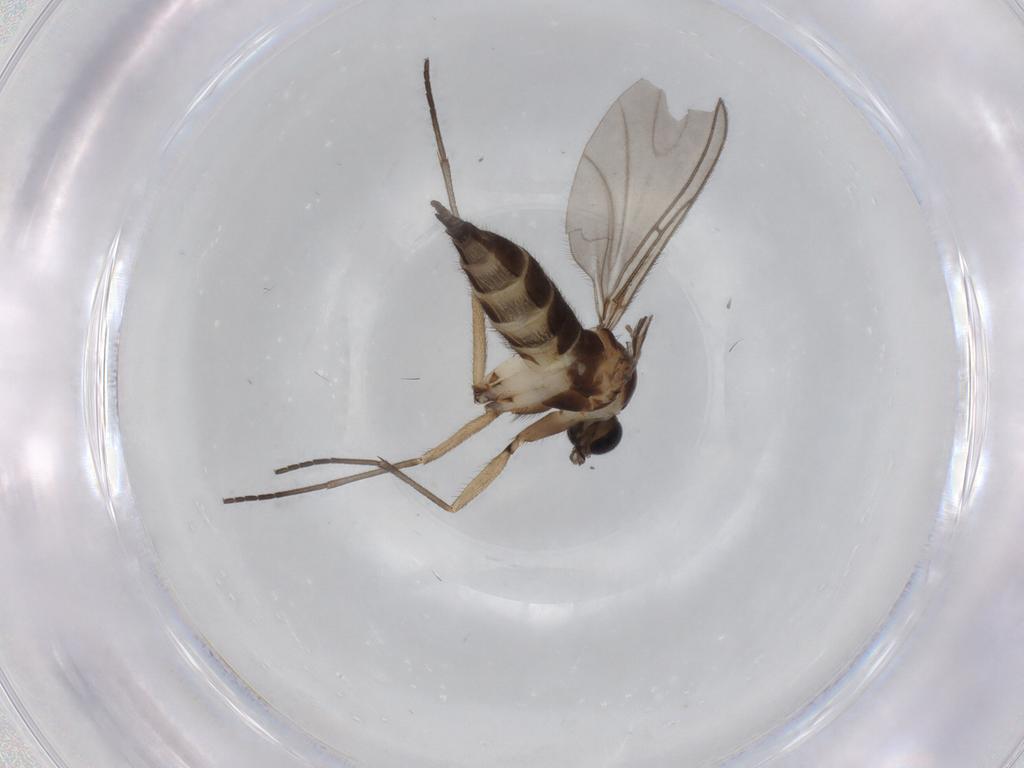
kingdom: Animalia
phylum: Arthropoda
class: Insecta
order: Diptera
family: Sciaridae
